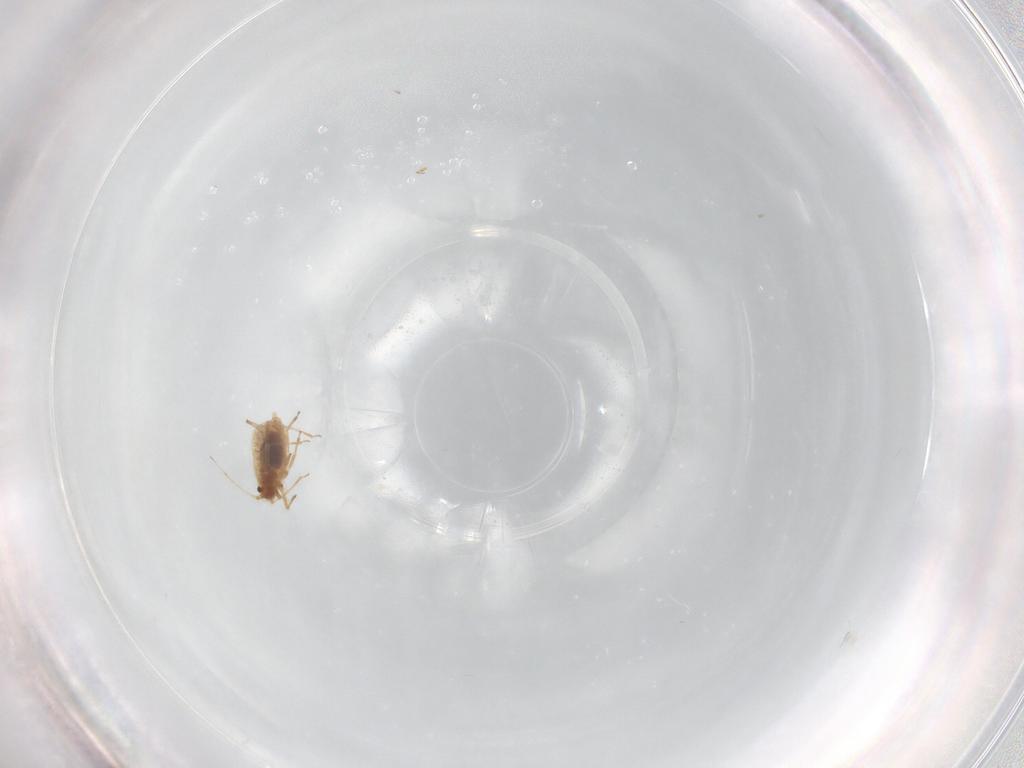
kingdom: Animalia
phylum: Arthropoda
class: Insecta
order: Hemiptera
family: Aphididae
